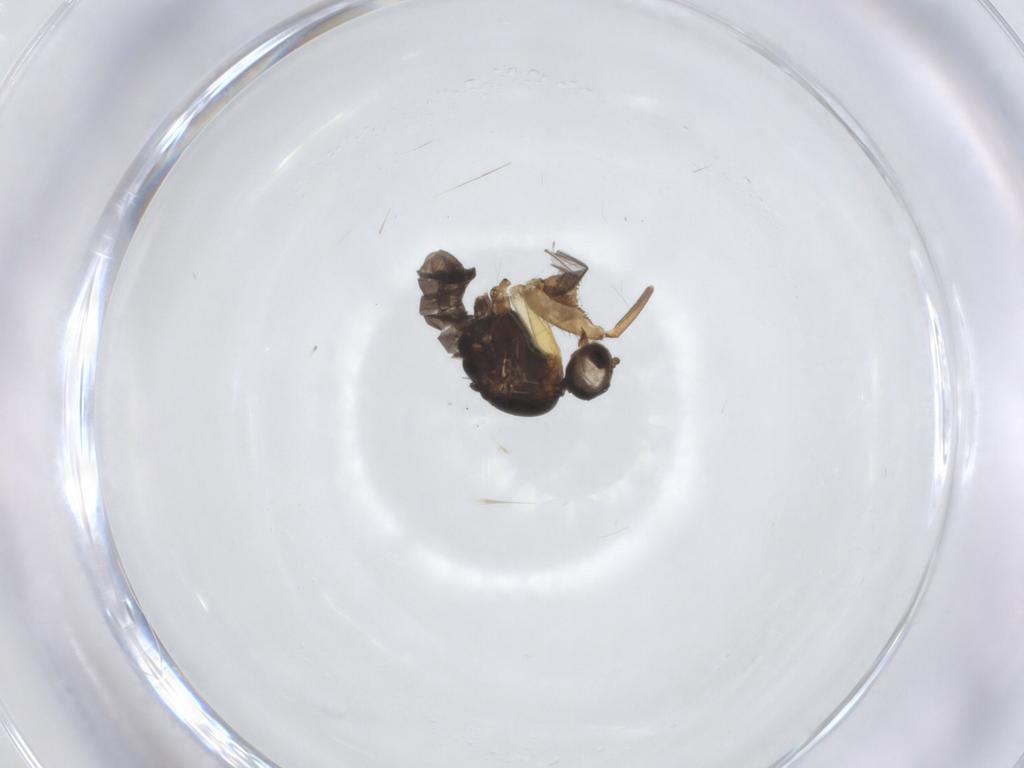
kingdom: Animalia
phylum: Arthropoda
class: Insecta
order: Diptera
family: Empididae
